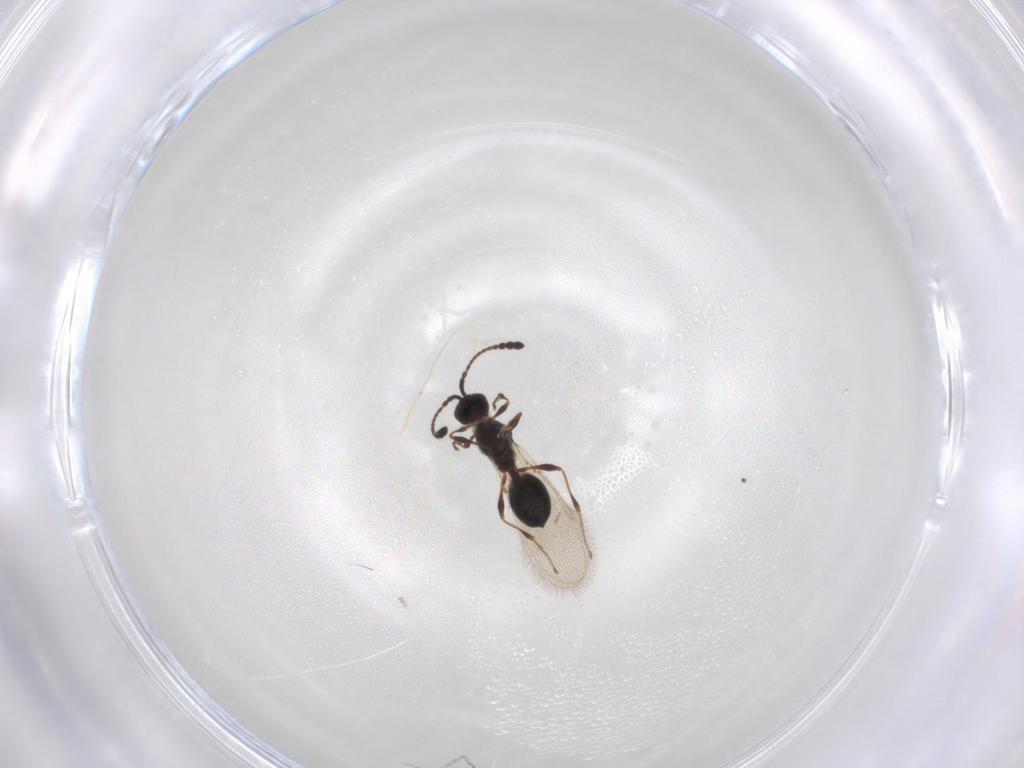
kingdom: Animalia
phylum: Arthropoda
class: Insecta
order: Hymenoptera
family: Diapriidae
